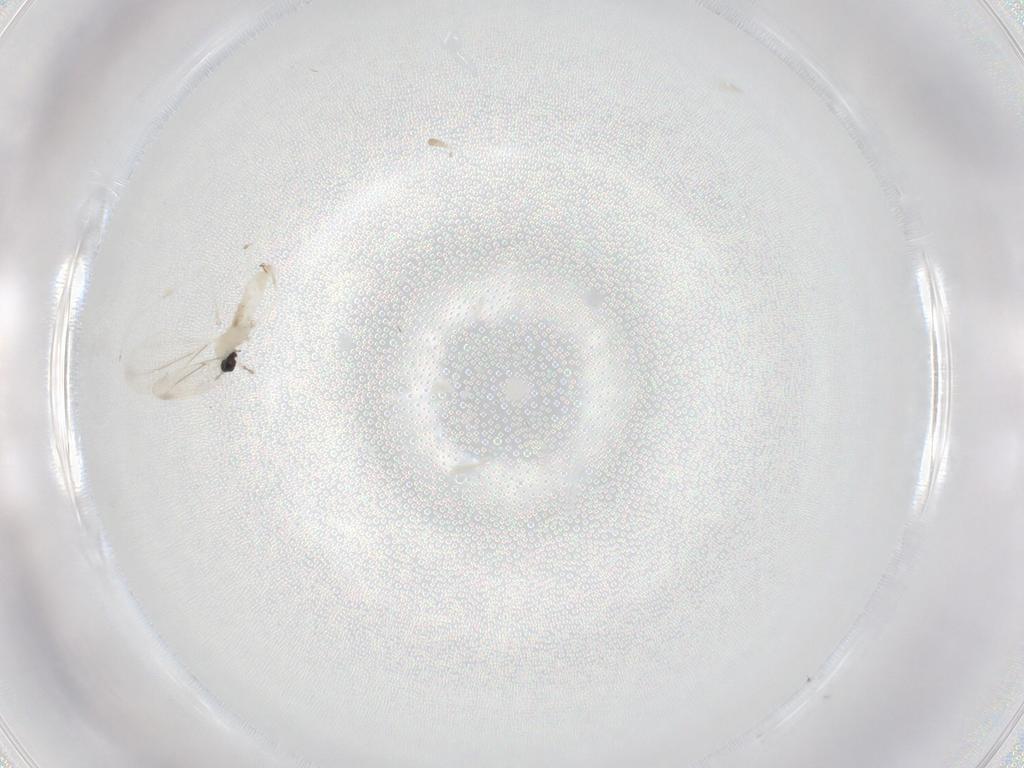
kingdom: Animalia
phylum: Arthropoda
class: Insecta
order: Diptera
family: Cecidomyiidae
